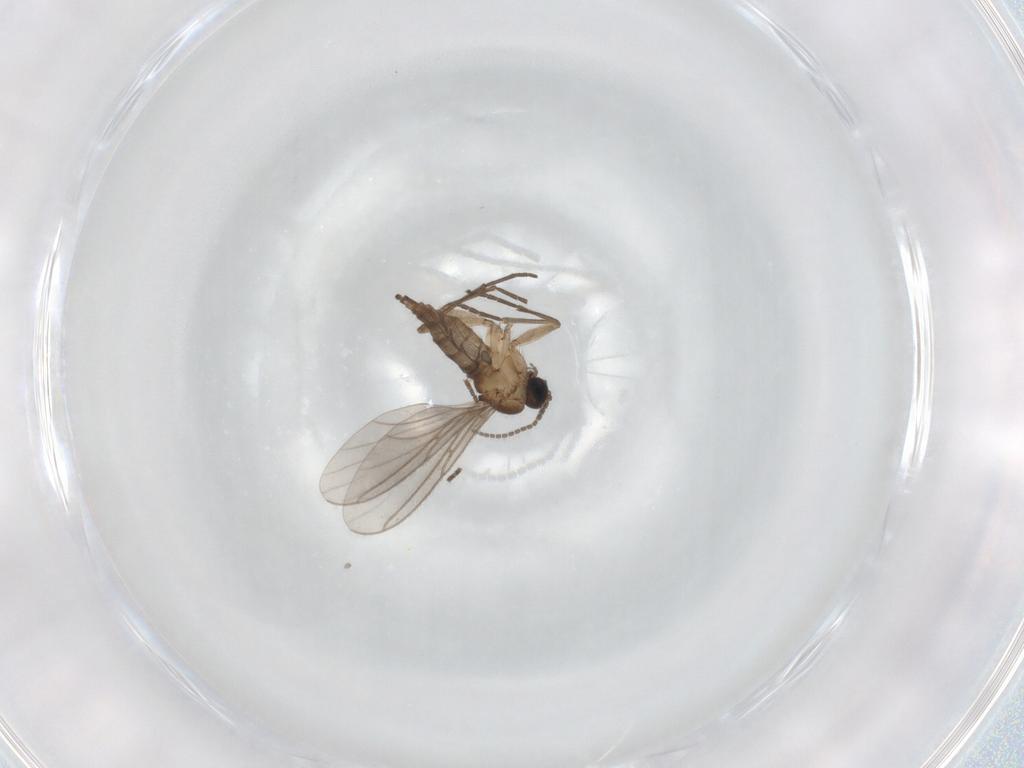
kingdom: Animalia
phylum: Arthropoda
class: Insecta
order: Diptera
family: Sciaridae
